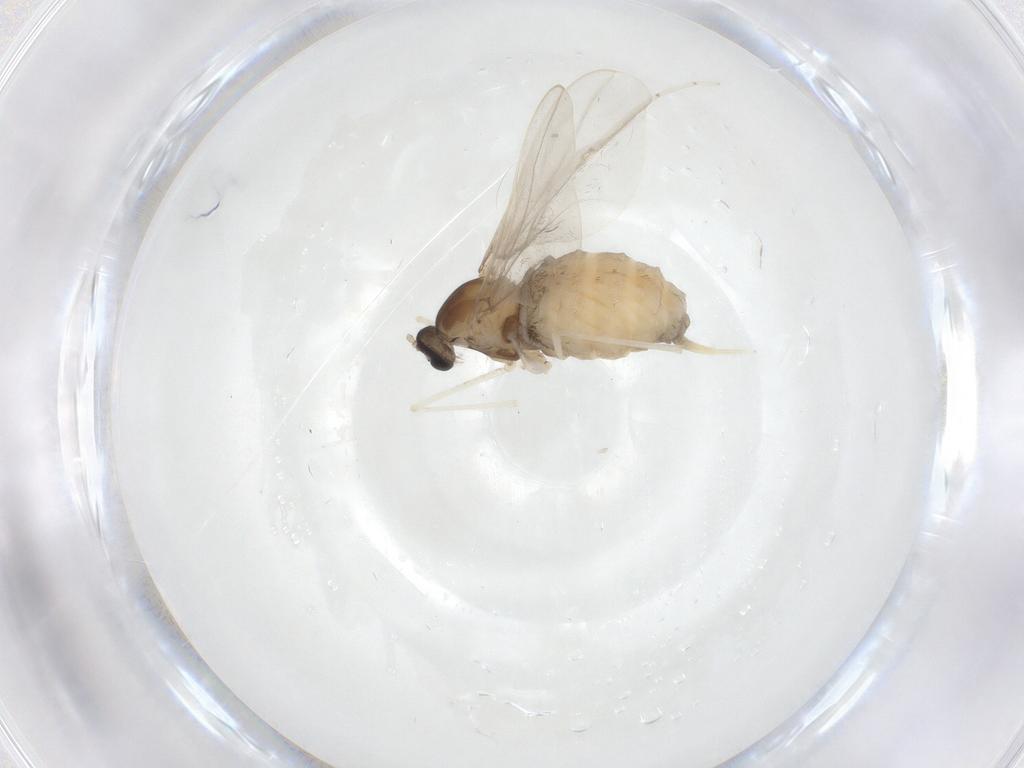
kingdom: Animalia
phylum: Arthropoda
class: Insecta
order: Diptera
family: Cecidomyiidae
